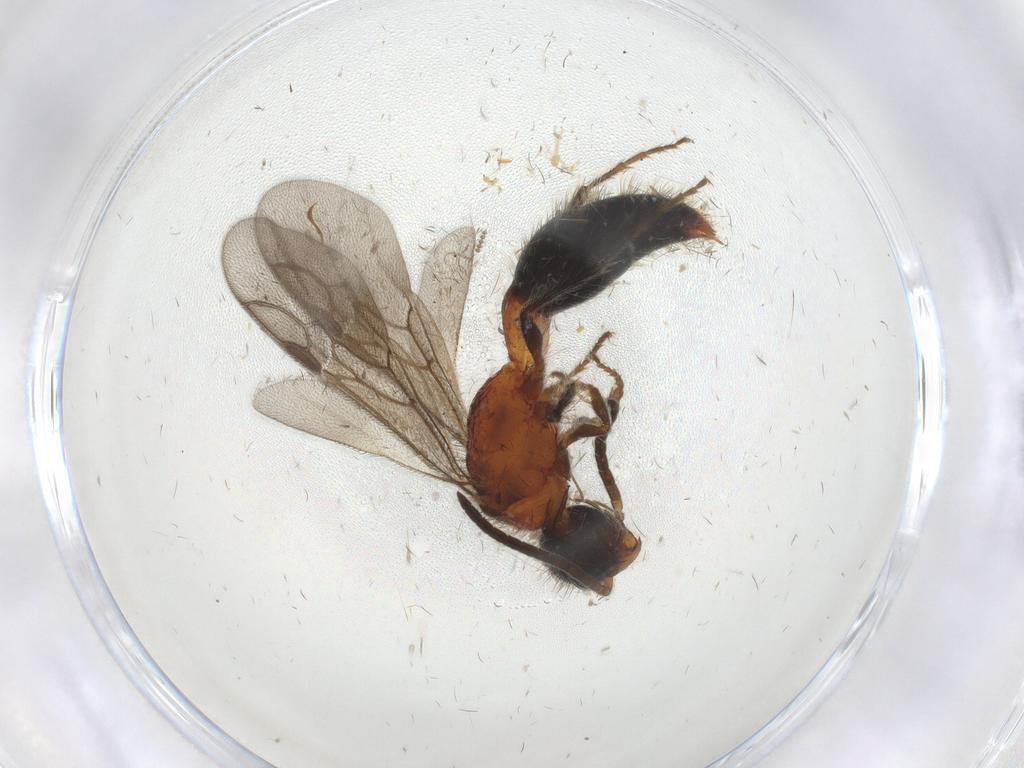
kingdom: Animalia
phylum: Arthropoda
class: Insecta
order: Hymenoptera
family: Mutillidae
